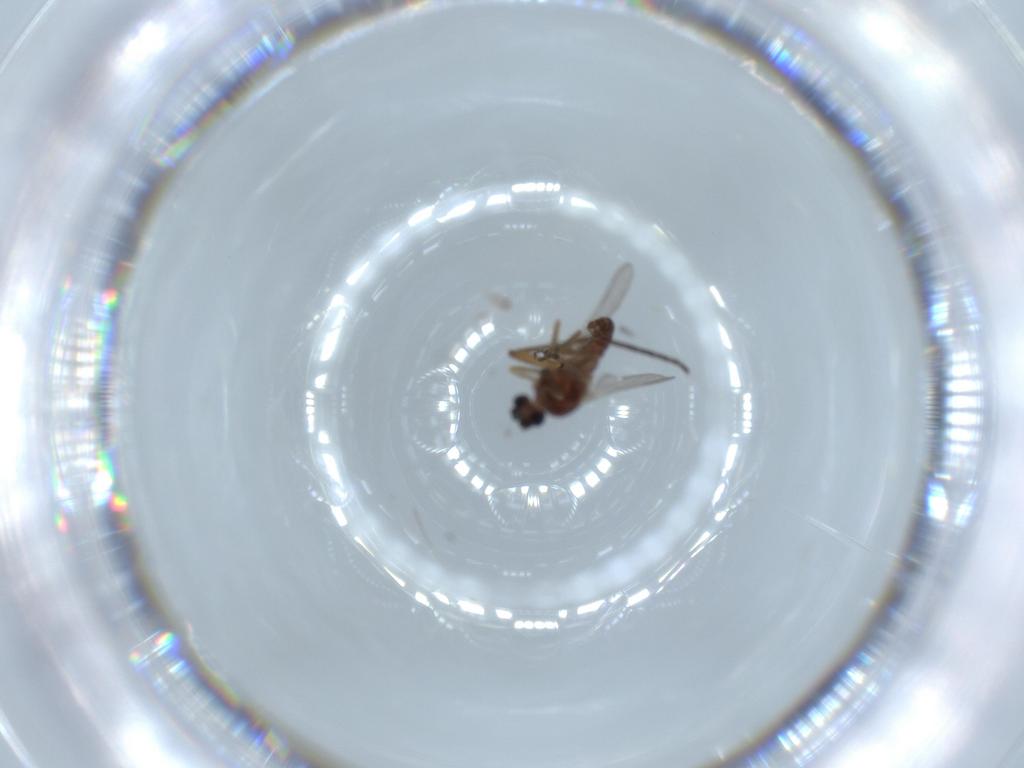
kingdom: Animalia
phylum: Arthropoda
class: Insecta
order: Diptera
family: Ceratopogonidae
